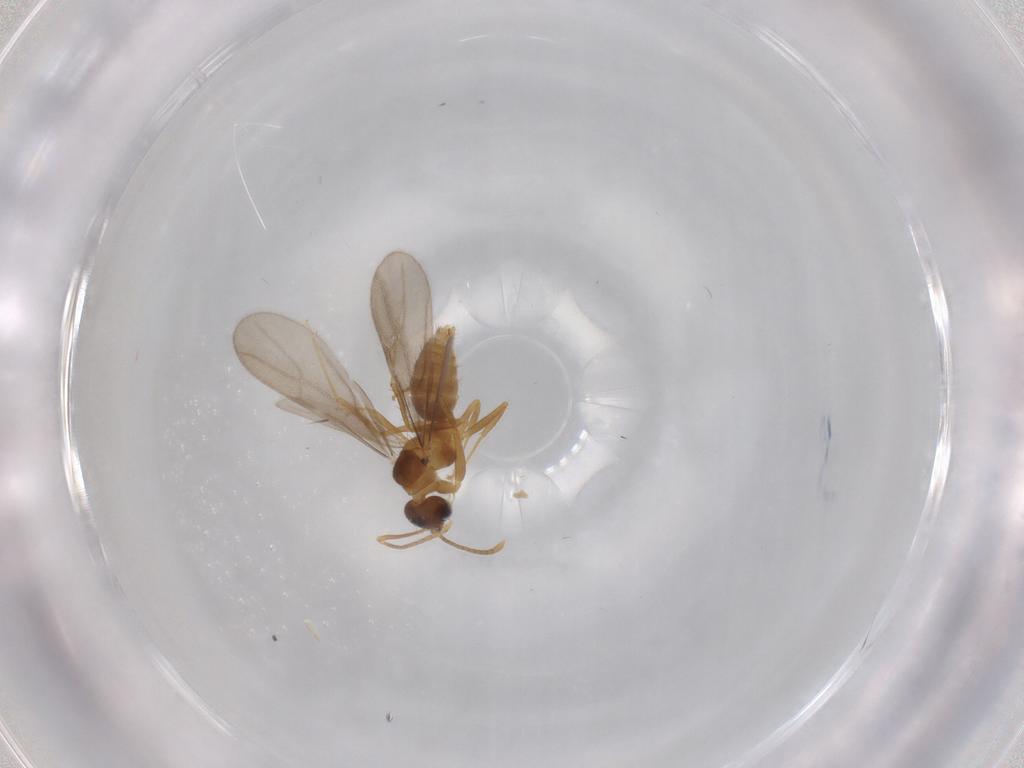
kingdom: Animalia
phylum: Arthropoda
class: Insecta
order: Hymenoptera
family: Formicidae
